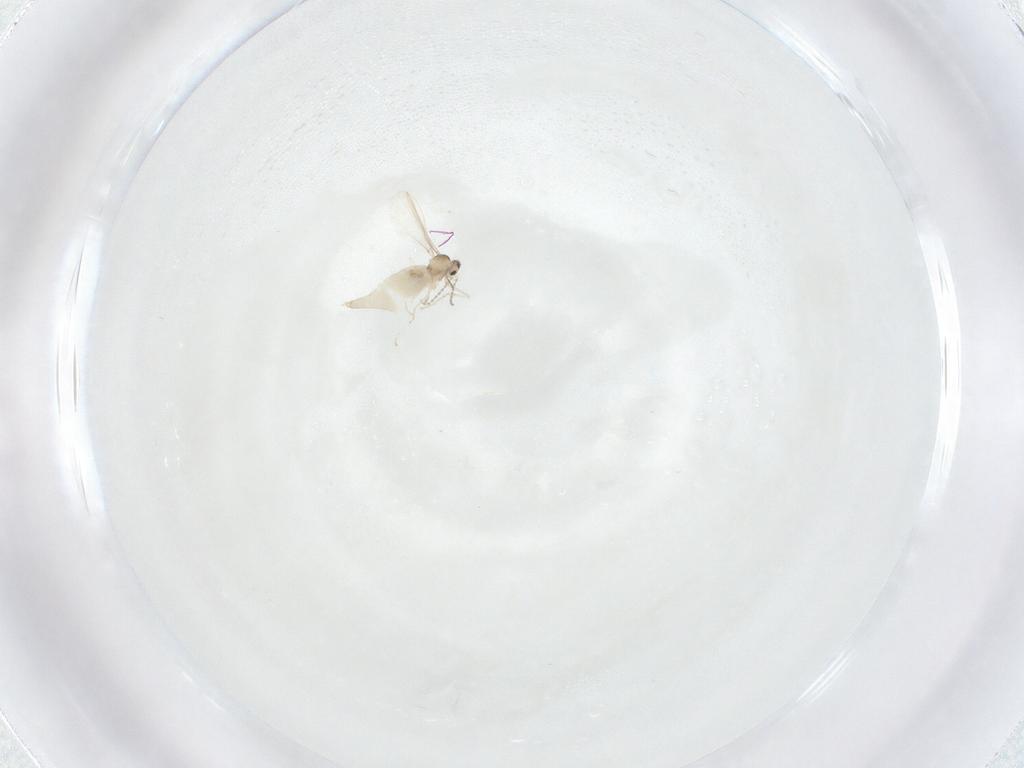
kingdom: Animalia
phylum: Arthropoda
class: Insecta
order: Diptera
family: Cecidomyiidae
